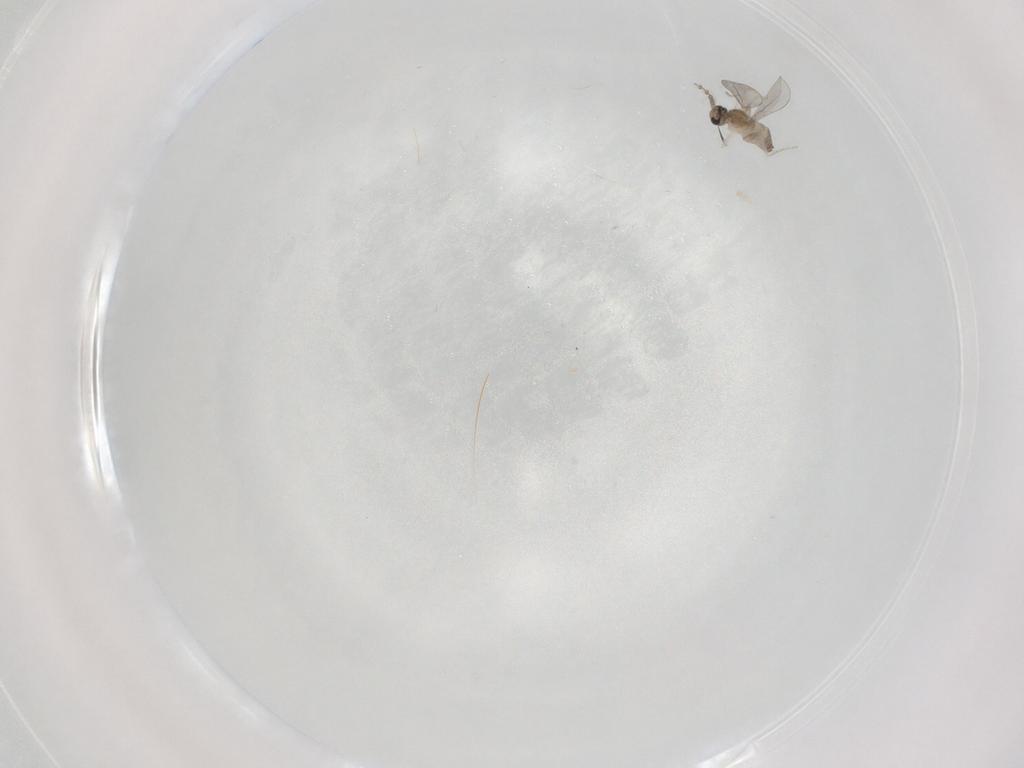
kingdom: Animalia
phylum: Arthropoda
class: Insecta
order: Diptera
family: Cecidomyiidae
